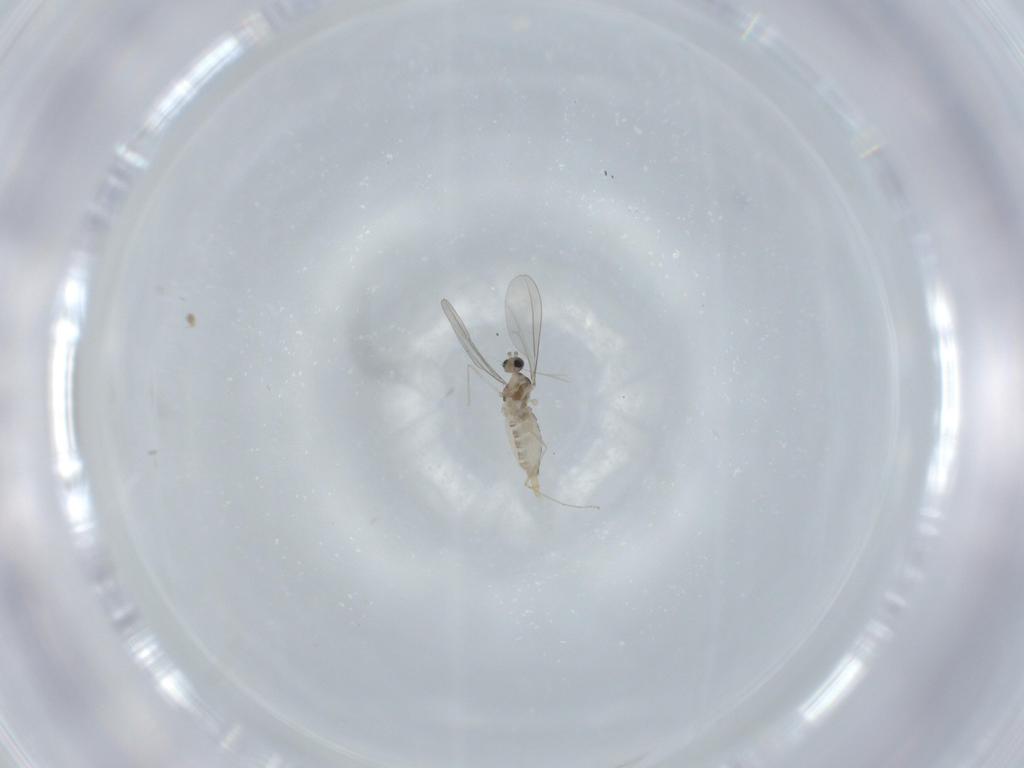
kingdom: Animalia
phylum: Arthropoda
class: Insecta
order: Diptera
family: Cecidomyiidae
